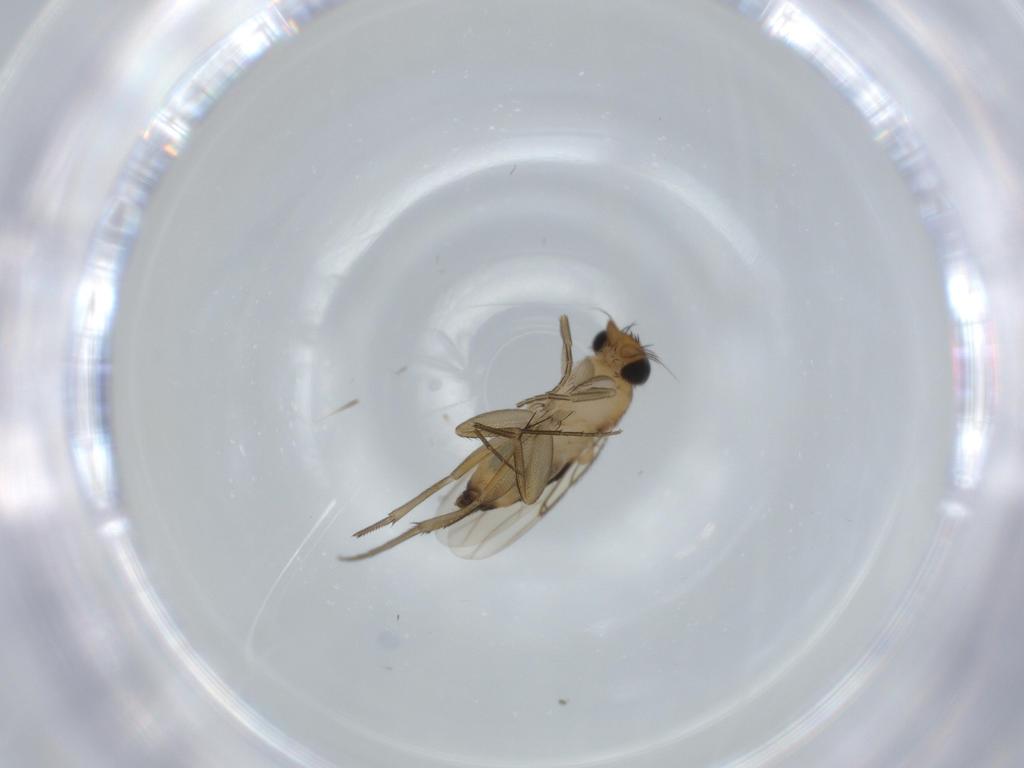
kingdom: Animalia
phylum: Arthropoda
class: Insecta
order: Diptera
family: Phoridae
